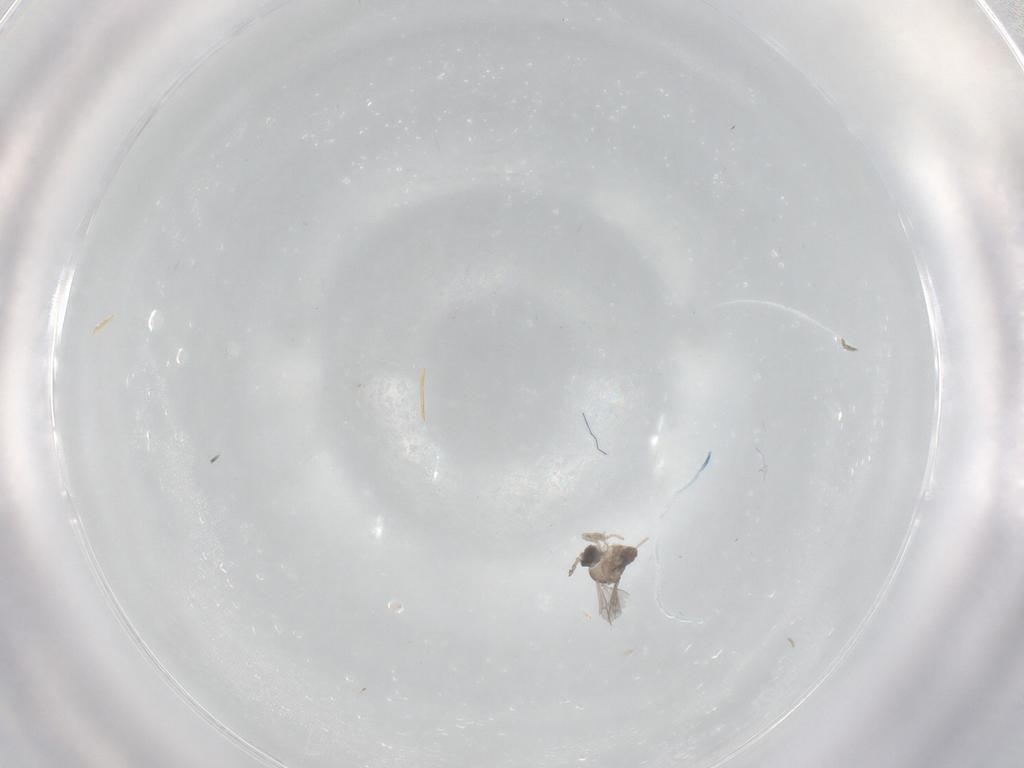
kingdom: Animalia
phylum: Arthropoda
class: Insecta
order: Diptera
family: Cecidomyiidae
